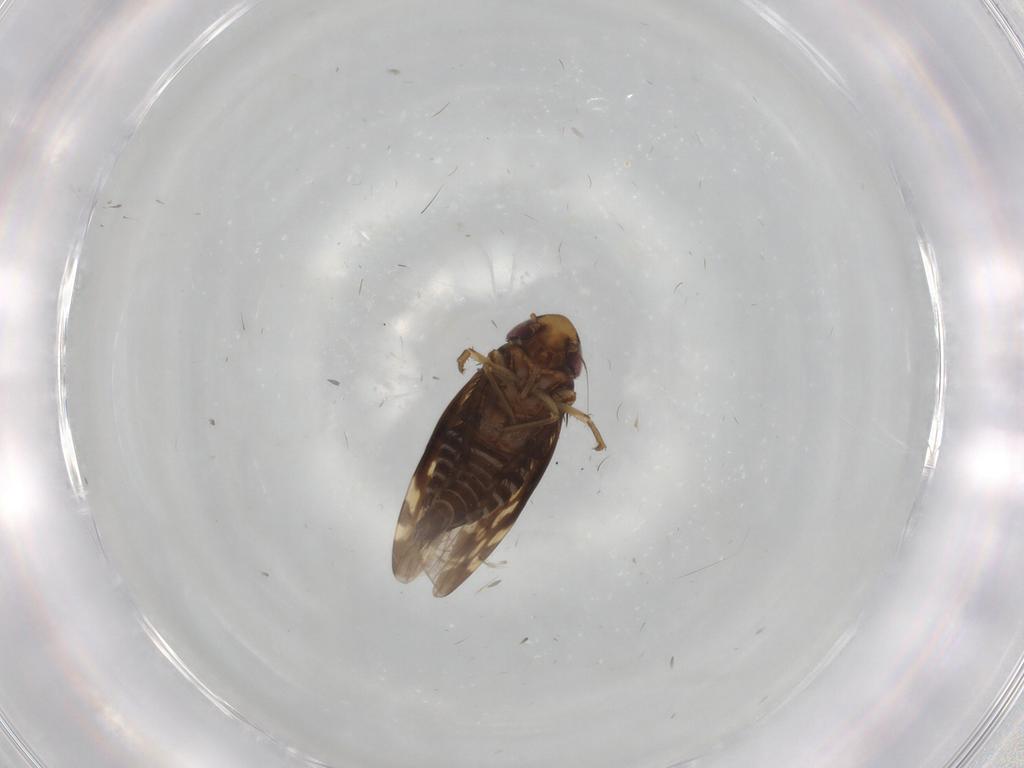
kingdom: Animalia
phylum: Arthropoda
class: Insecta
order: Hemiptera
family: Cicadellidae
